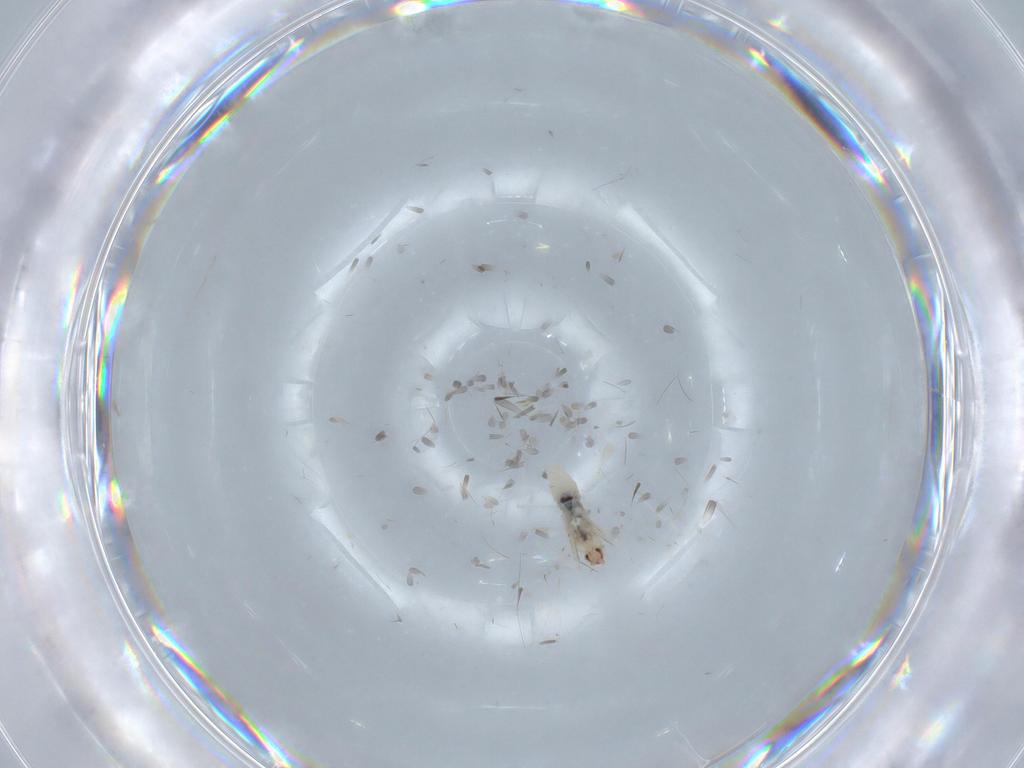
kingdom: Animalia
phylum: Arthropoda
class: Insecta
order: Diptera
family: Cecidomyiidae
